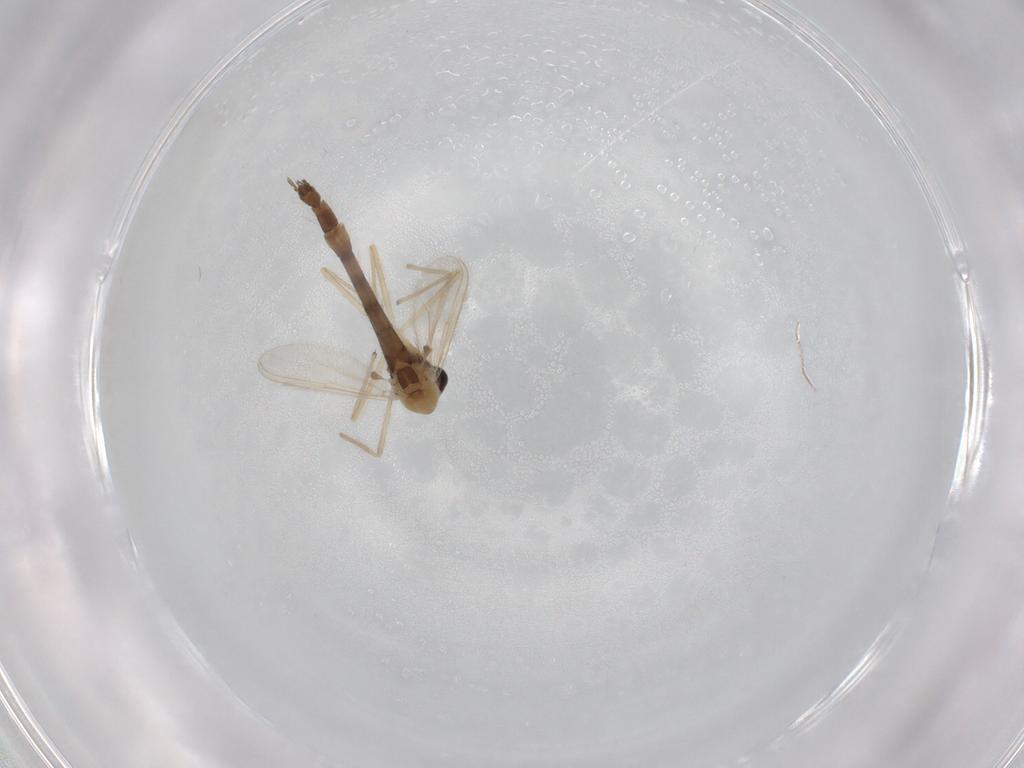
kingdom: Animalia
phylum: Arthropoda
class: Insecta
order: Diptera
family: Chironomidae
